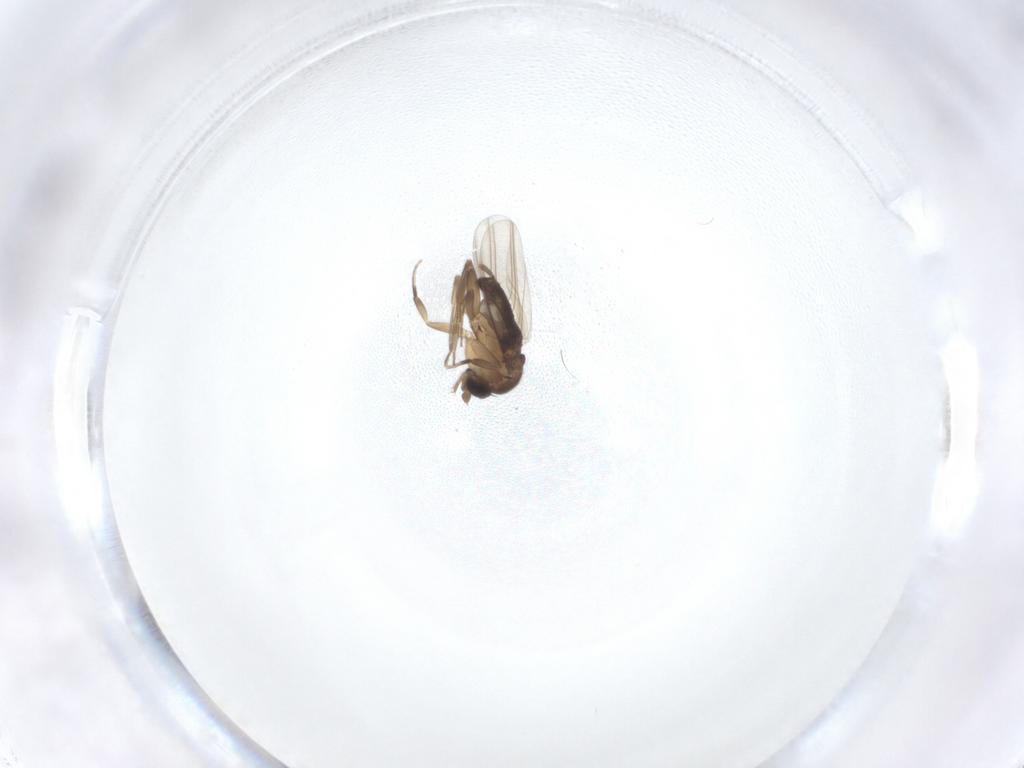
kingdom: Animalia
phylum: Arthropoda
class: Insecta
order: Diptera
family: Phoridae
